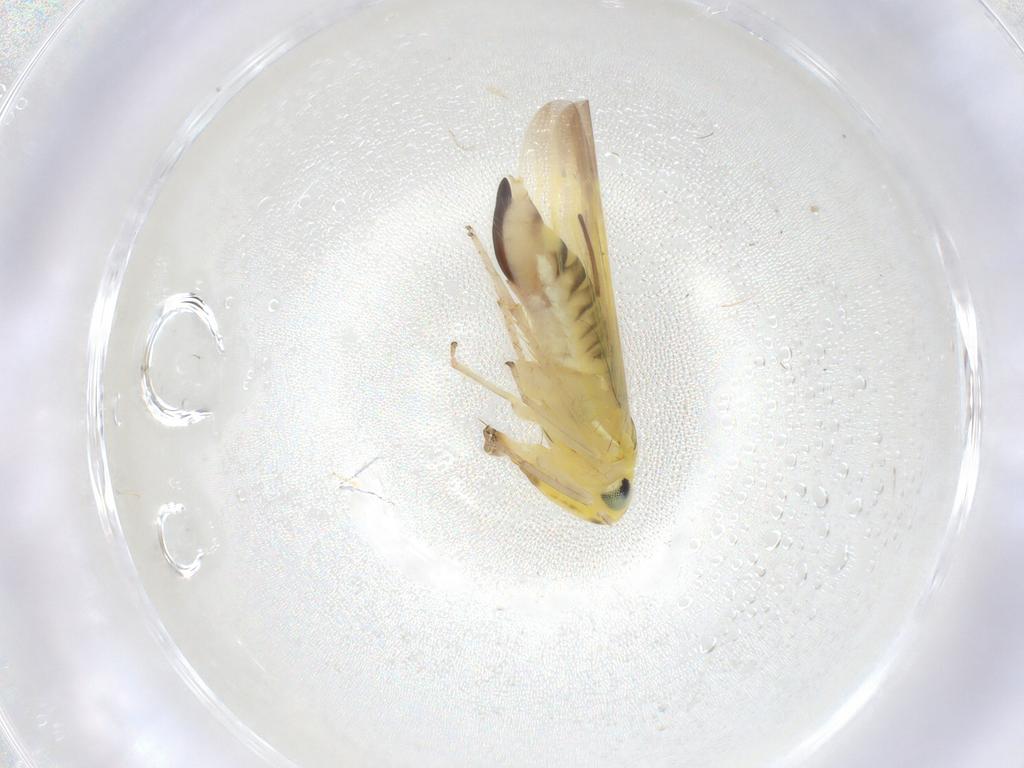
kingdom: Animalia
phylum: Arthropoda
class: Insecta
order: Hemiptera
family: Cicadellidae
